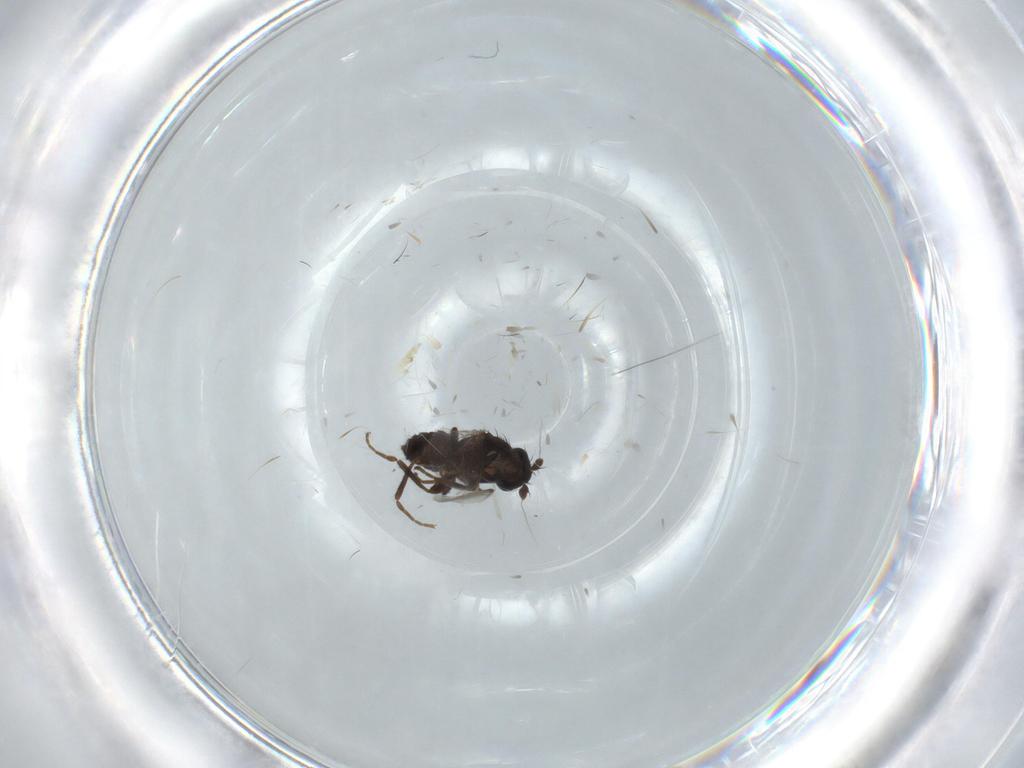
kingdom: Animalia
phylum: Arthropoda
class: Insecta
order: Diptera
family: Sphaeroceridae
